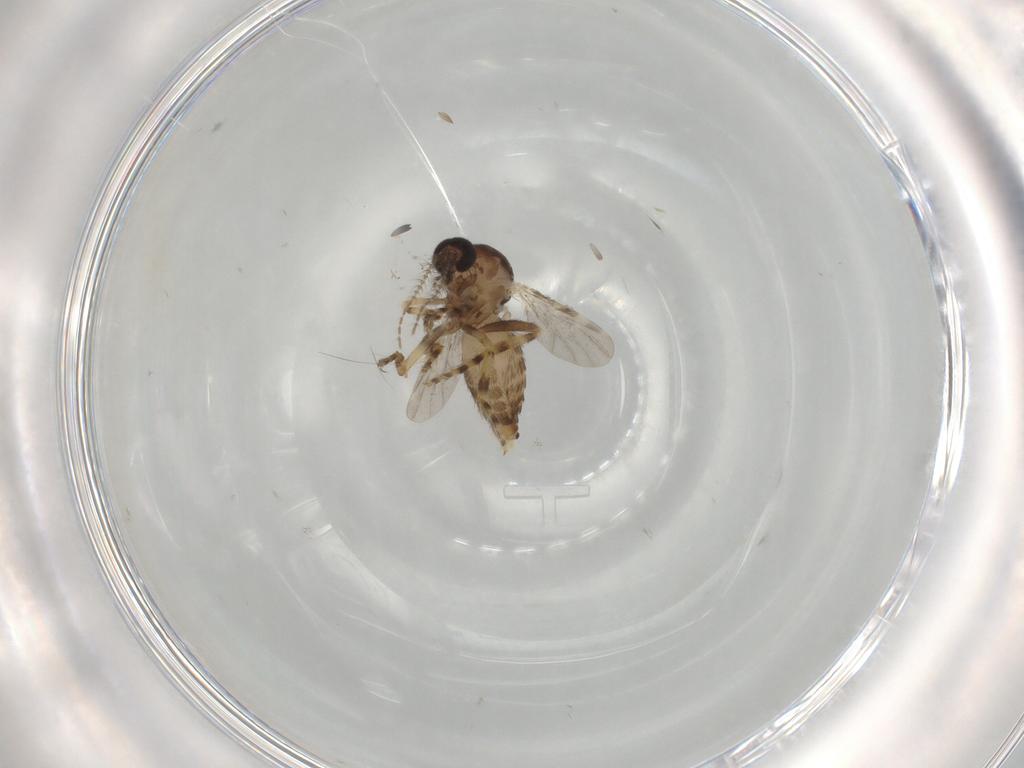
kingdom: Animalia
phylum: Arthropoda
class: Insecta
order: Diptera
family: Ceratopogonidae
